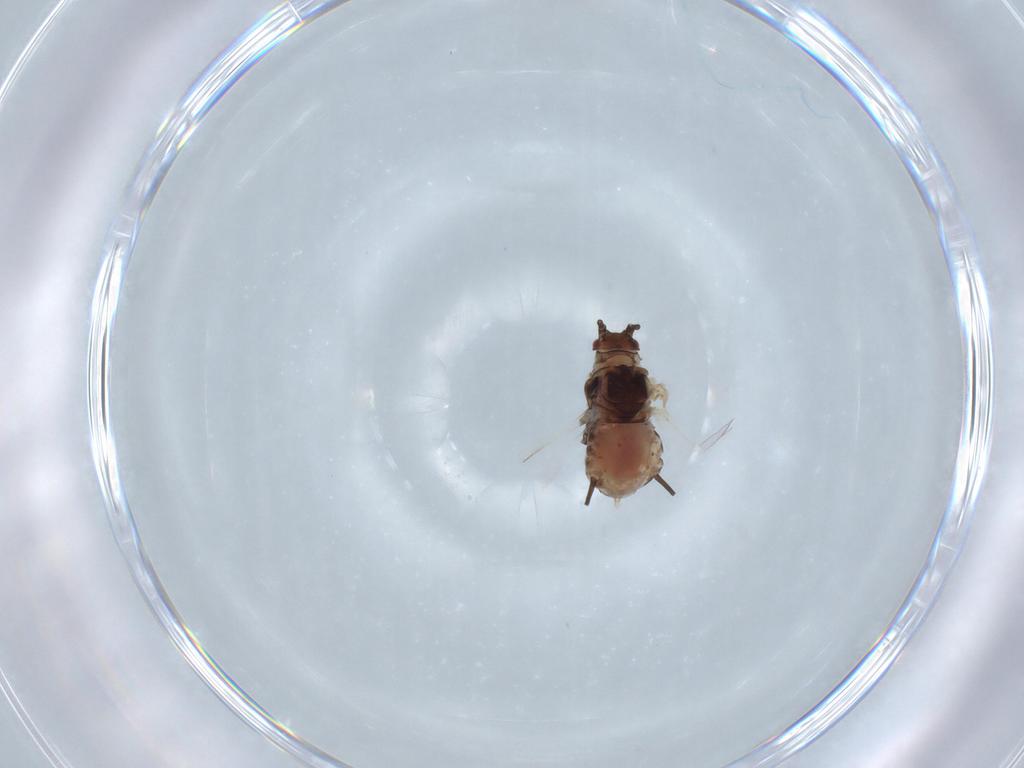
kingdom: Animalia
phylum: Arthropoda
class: Insecta
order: Hemiptera
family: Aphididae
